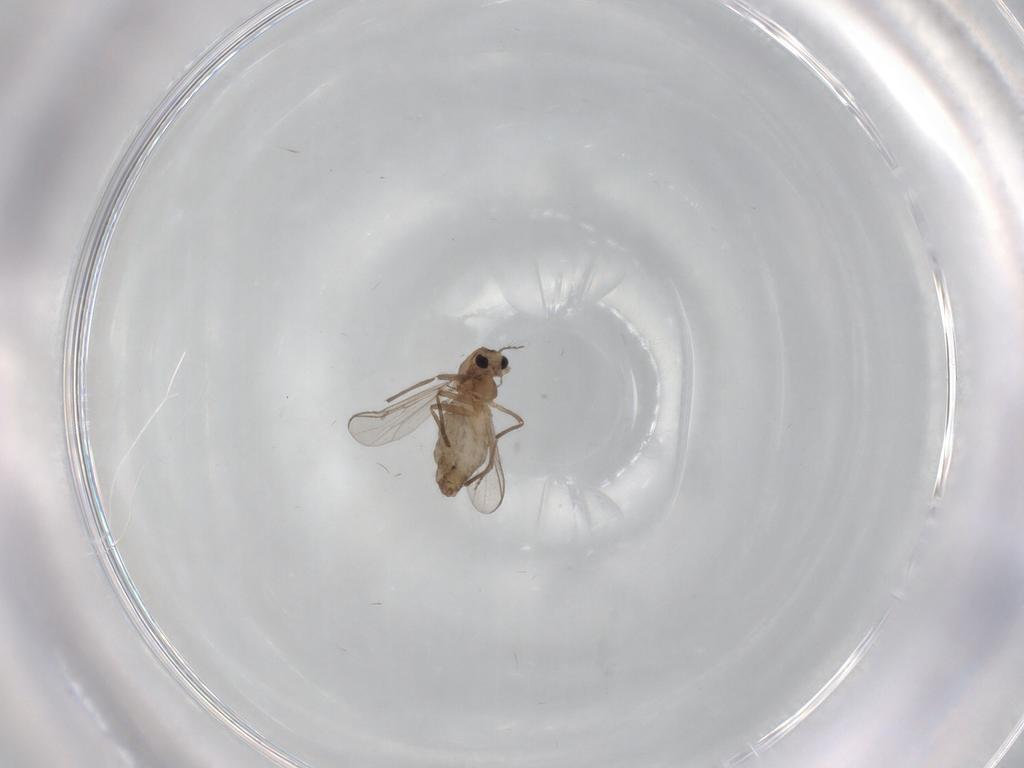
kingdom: Animalia
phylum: Arthropoda
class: Insecta
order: Diptera
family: Chironomidae
